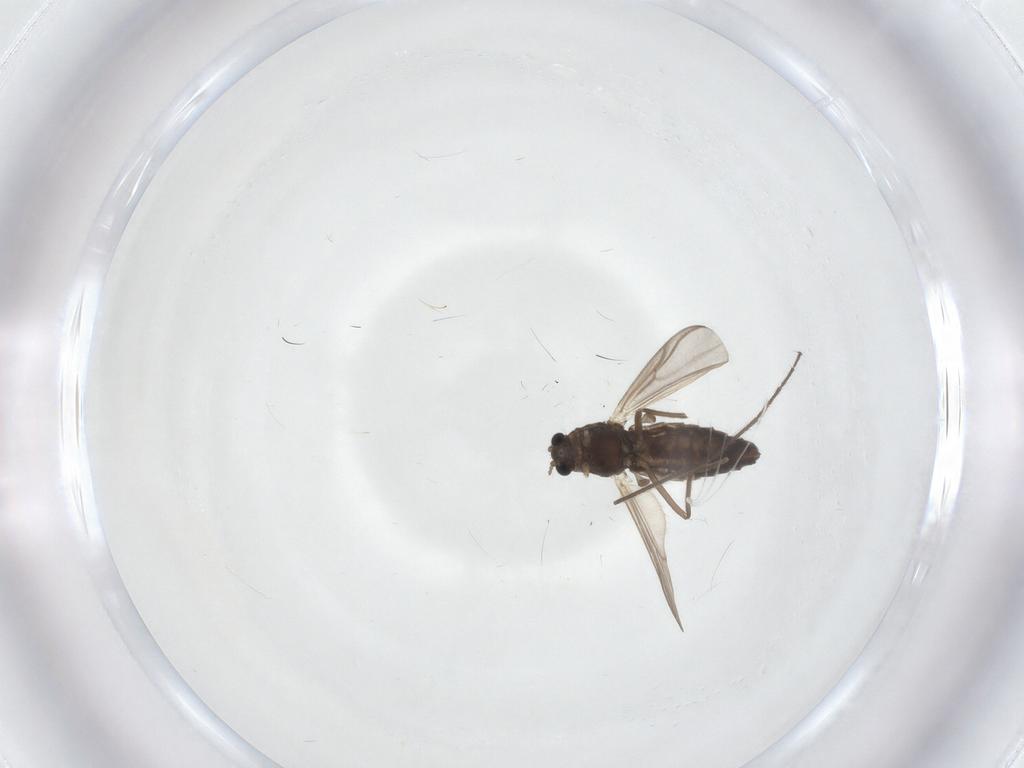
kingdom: Animalia
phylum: Arthropoda
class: Insecta
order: Diptera
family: Chironomidae
